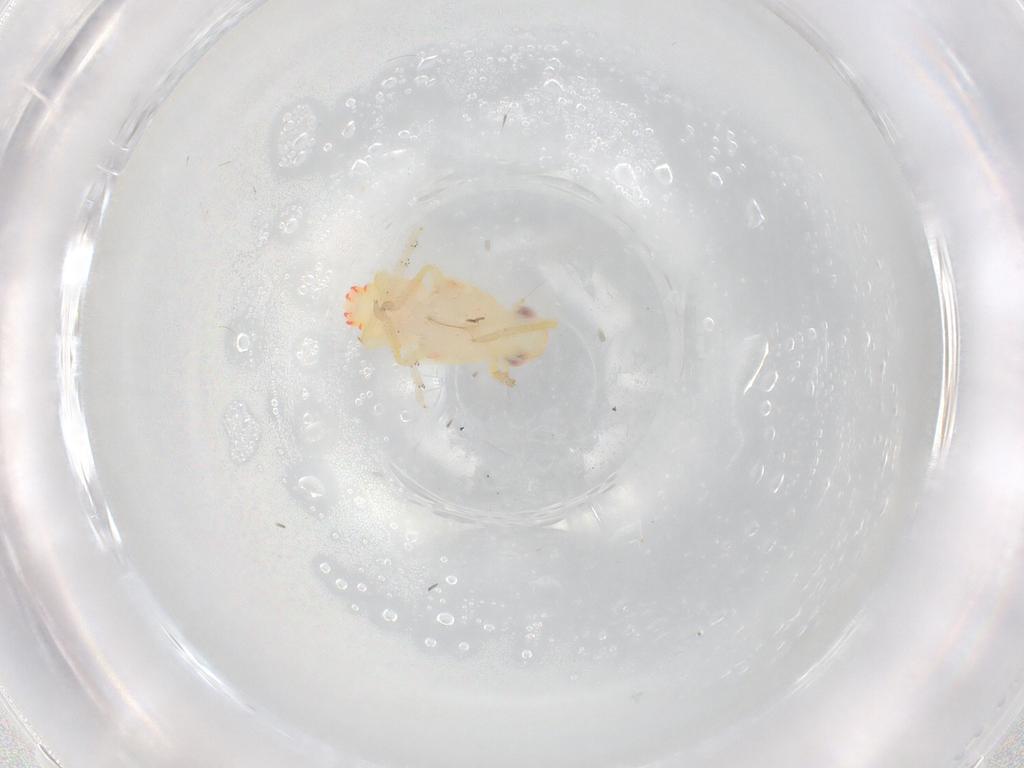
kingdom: Animalia
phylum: Arthropoda
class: Insecta
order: Hemiptera
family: Tropiduchidae
